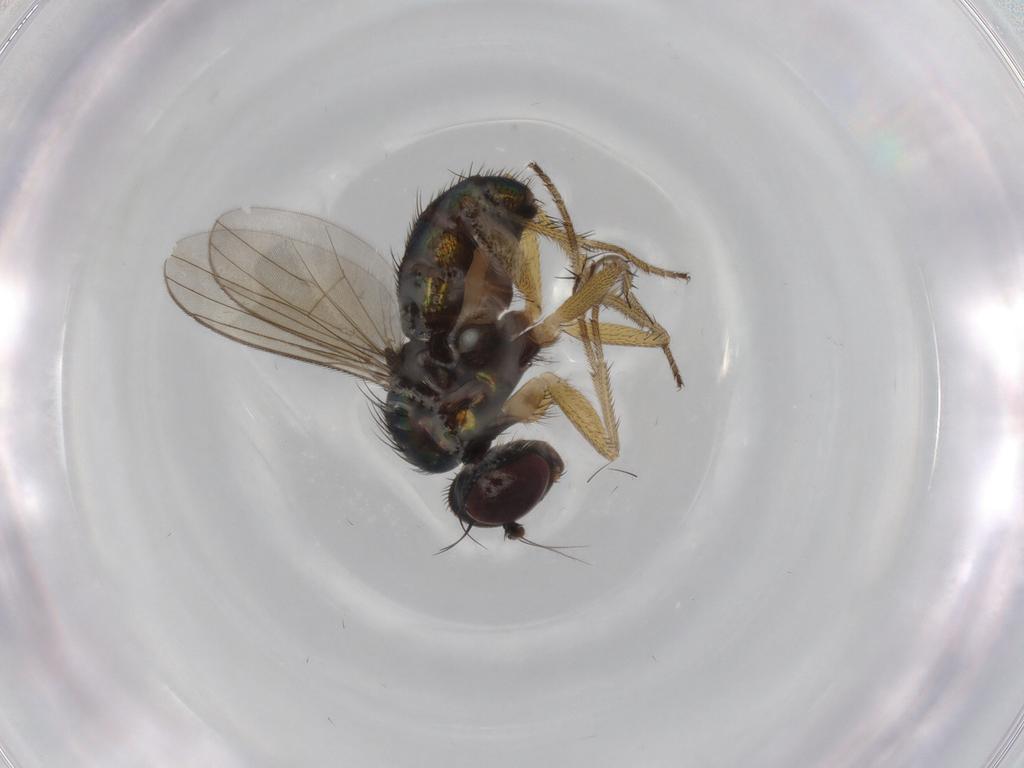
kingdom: Animalia
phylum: Arthropoda
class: Insecta
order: Diptera
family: Dolichopodidae
